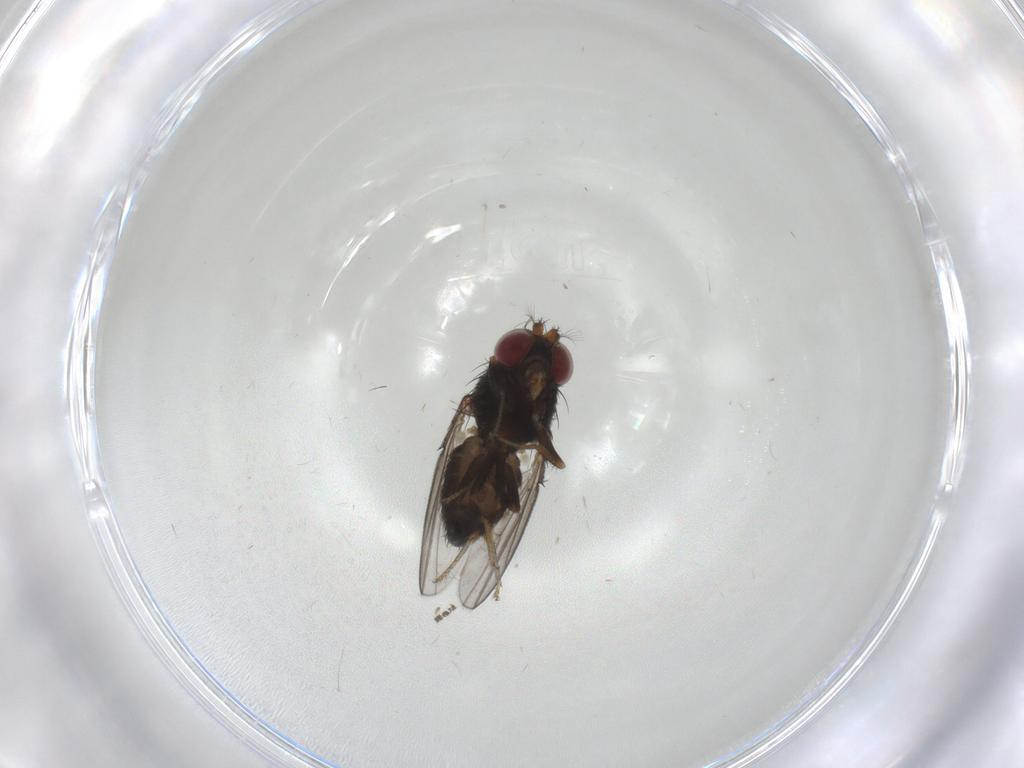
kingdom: Animalia
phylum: Arthropoda
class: Insecta
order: Diptera
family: Ephydridae
